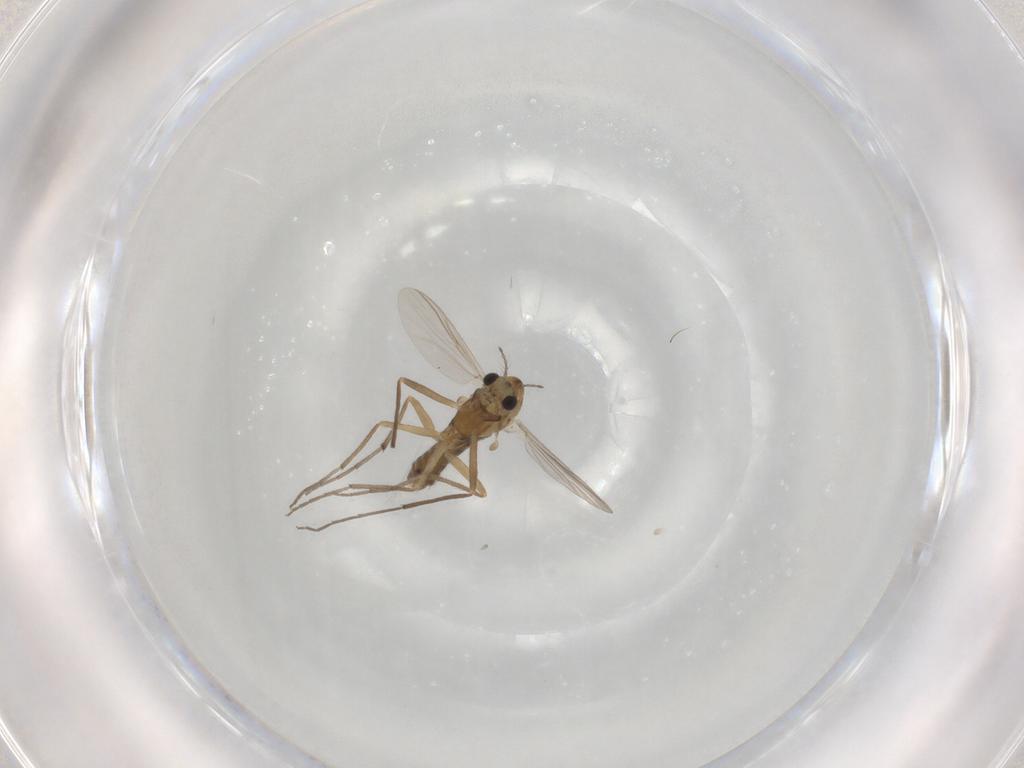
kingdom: Animalia
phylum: Arthropoda
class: Insecta
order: Diptera
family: Chironomidae
